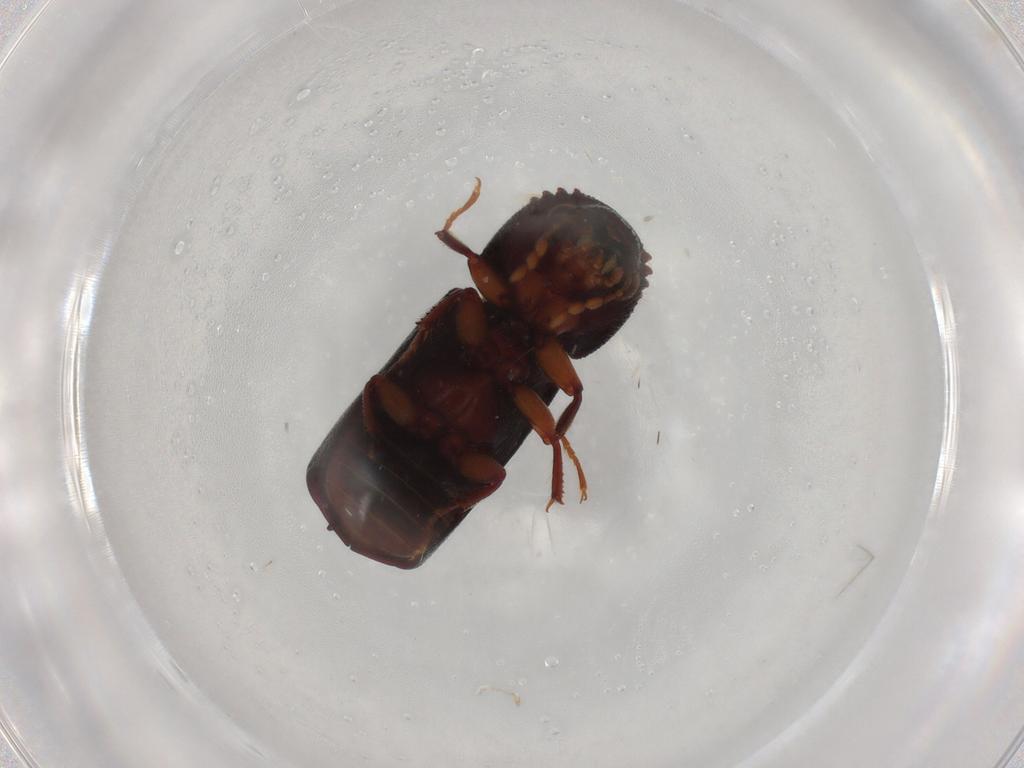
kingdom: Animalia
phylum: Arthropoda
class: Insecta
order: Coleoptera
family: Bostrichidae
